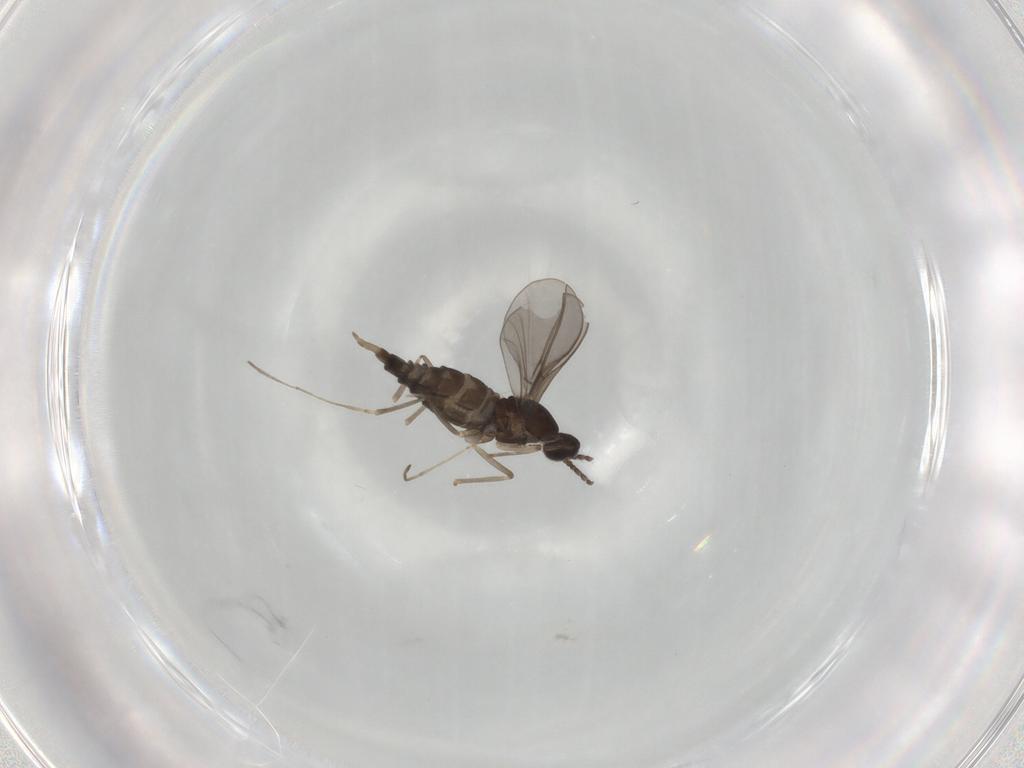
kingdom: Animalia
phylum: Arthropoda
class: Insecta
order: Diptera
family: Cecidomyiidae
